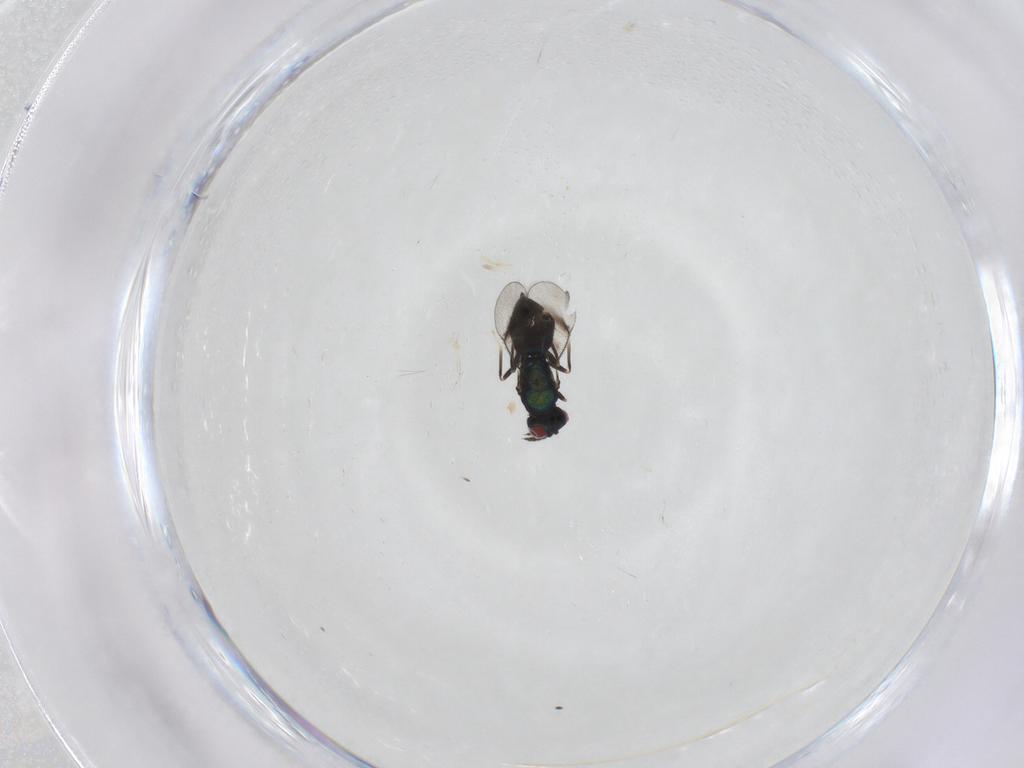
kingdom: Animalia
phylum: Arthropoda
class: Insecta
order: Hymenoptera
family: Eulophidae
